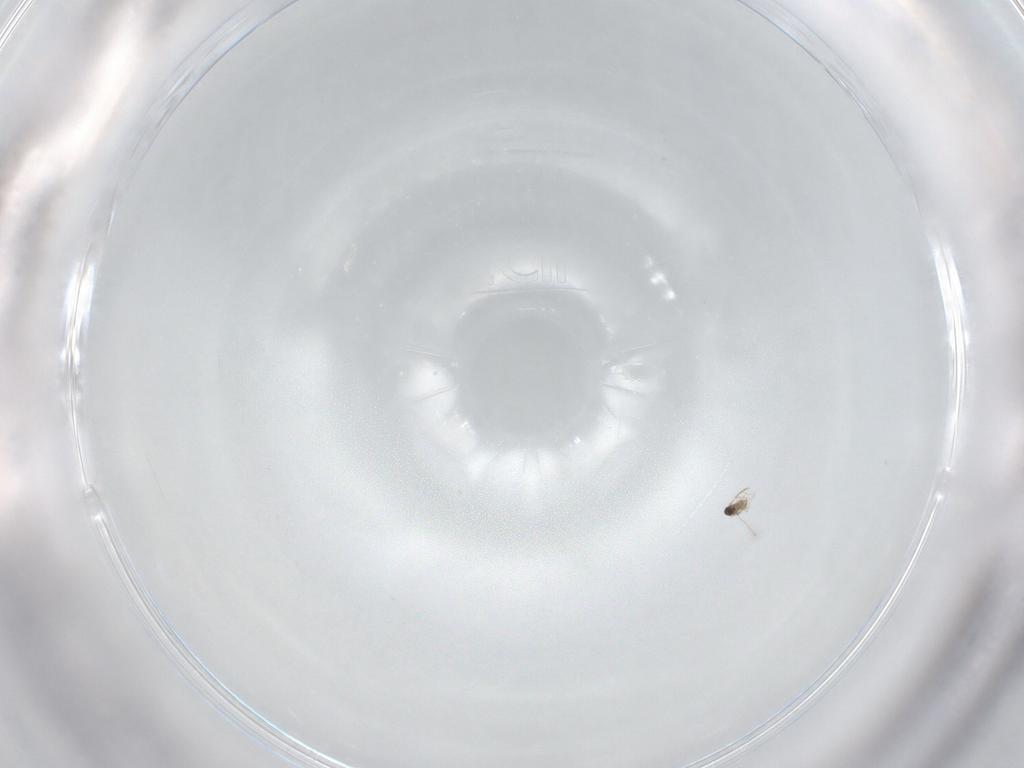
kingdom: Animalia
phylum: Arthropoda
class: Insecta
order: Hymenoptera
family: Mymaridae
